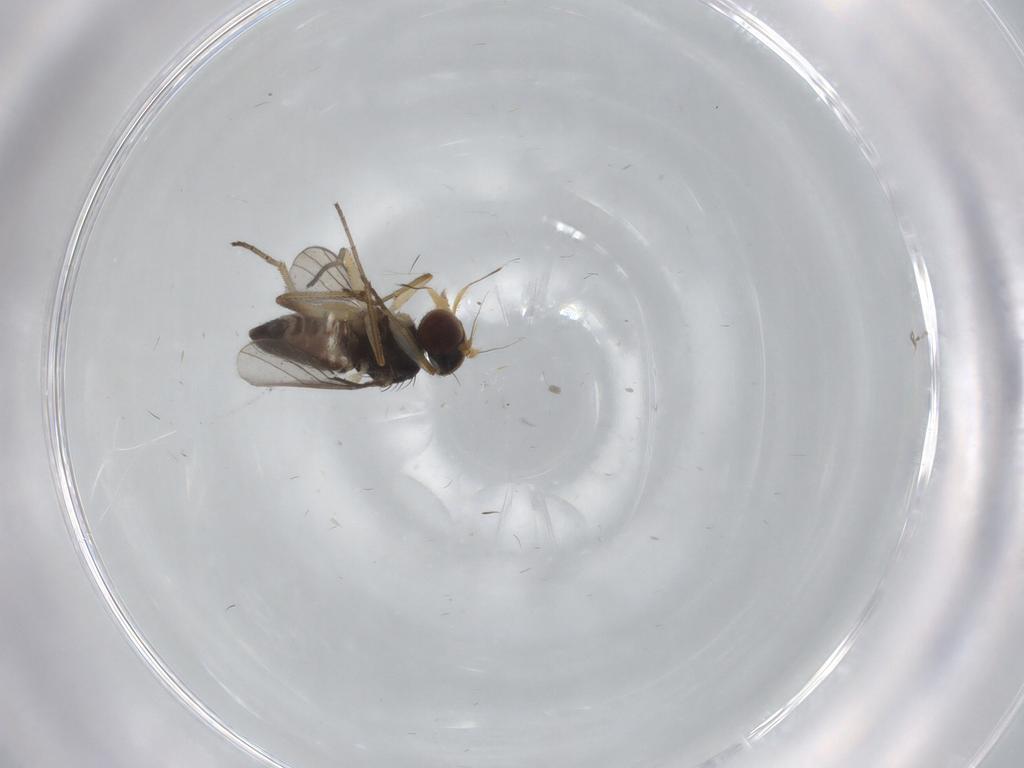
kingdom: Animalia
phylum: Arthropoda
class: Insecta
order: Diptera
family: Dolichopodidae
